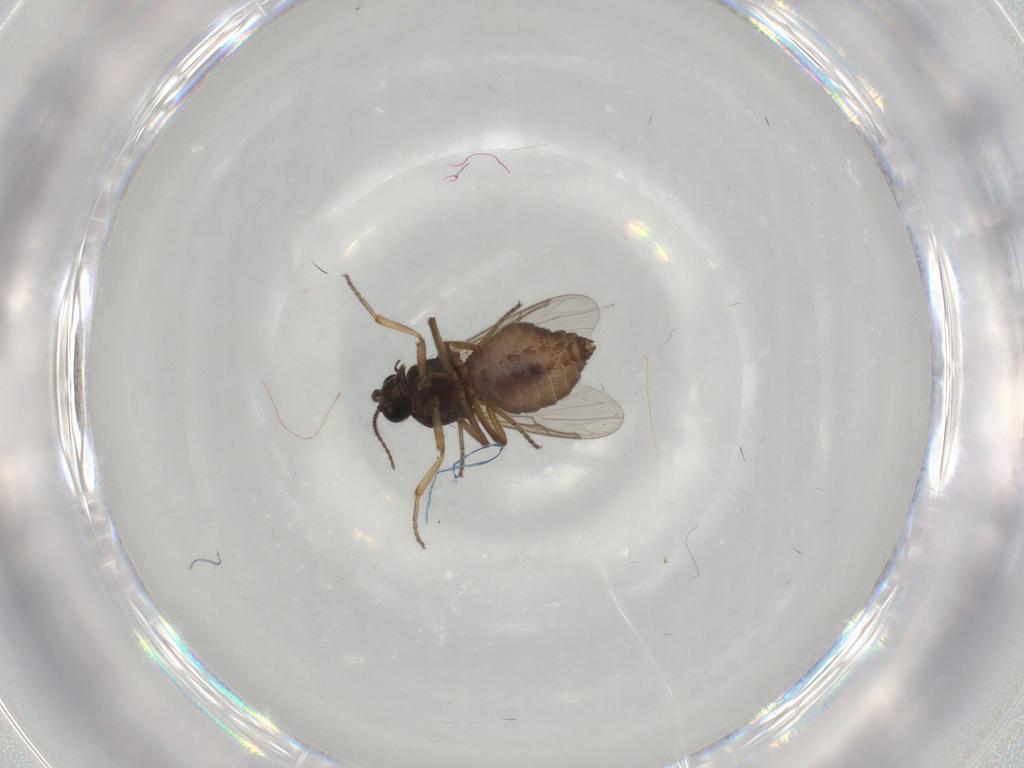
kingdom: Animalia
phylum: Arthropoda
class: Insecta
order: Diptera
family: Ceratopogonidae
